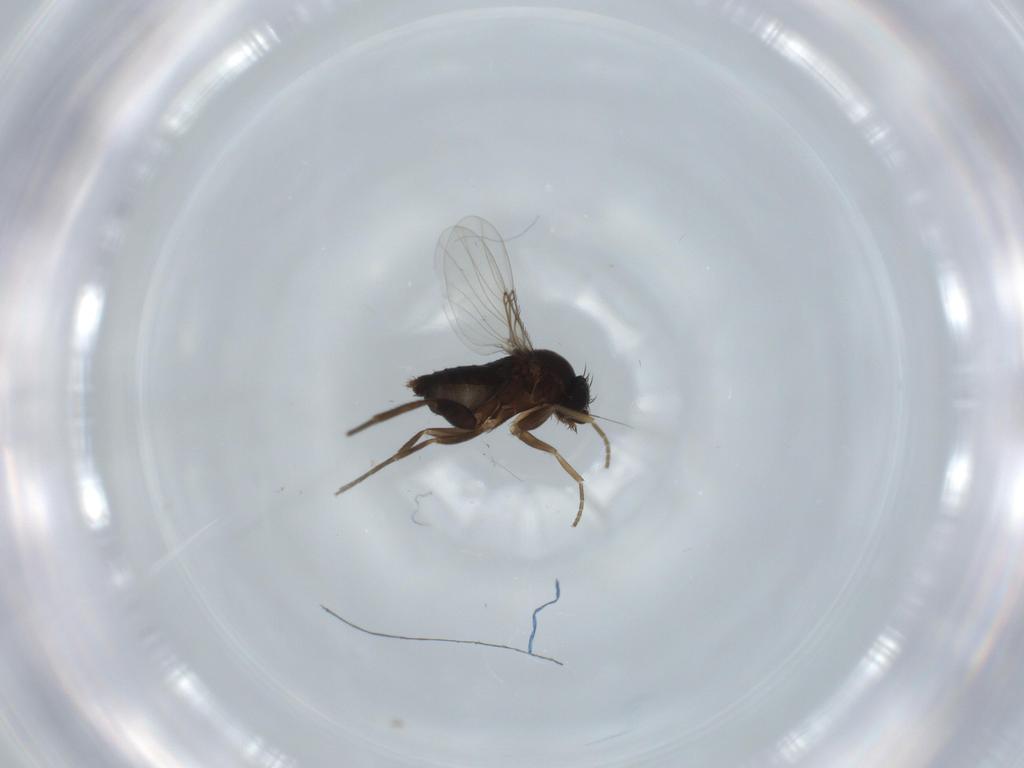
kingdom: Animalia
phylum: Arthropoda
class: Insecta
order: Diptera
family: Phoridae
